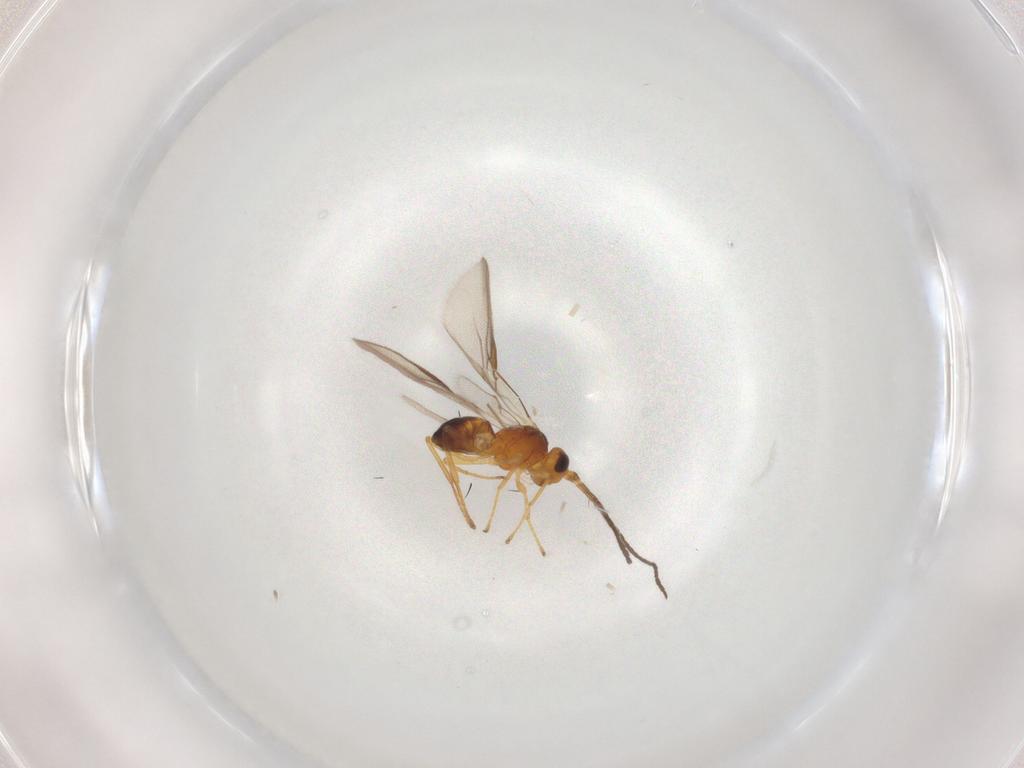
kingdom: Animalia
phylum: Arthropoda
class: Insecta
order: Hymenoptera
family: Braconidae
